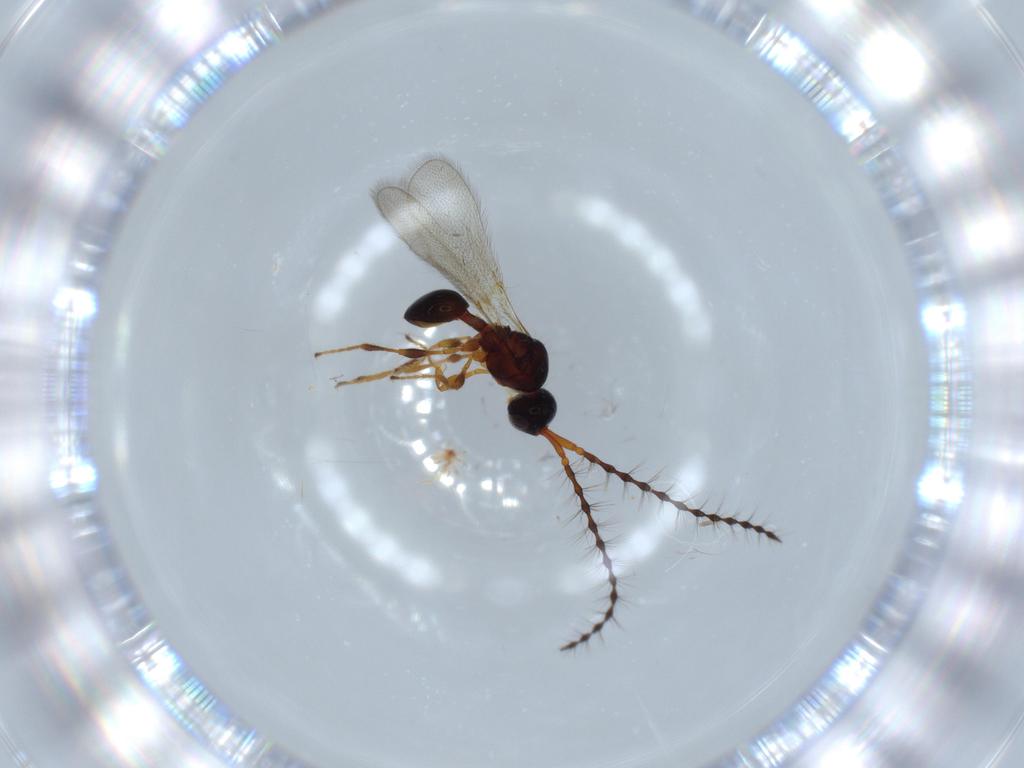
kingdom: Animalia
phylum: Arthropoda
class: Insecta
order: Hymenoptera
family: Diapriidae
